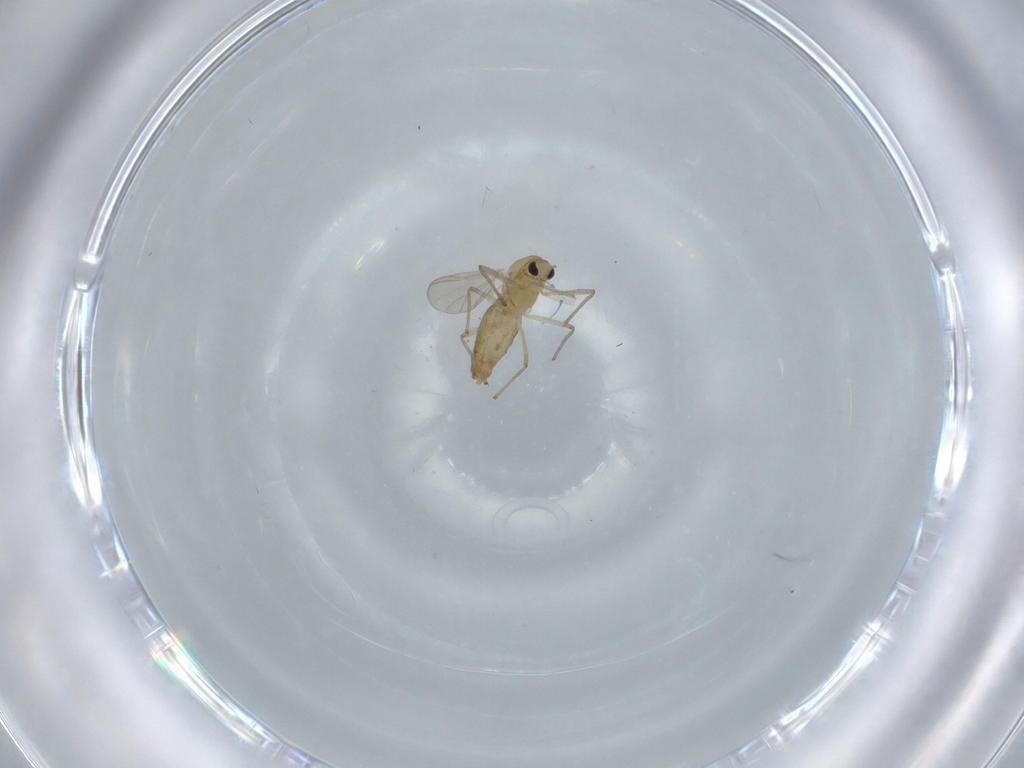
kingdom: Animalia
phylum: Arthropoda
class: Insecta
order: Diptera
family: Chironomidae
